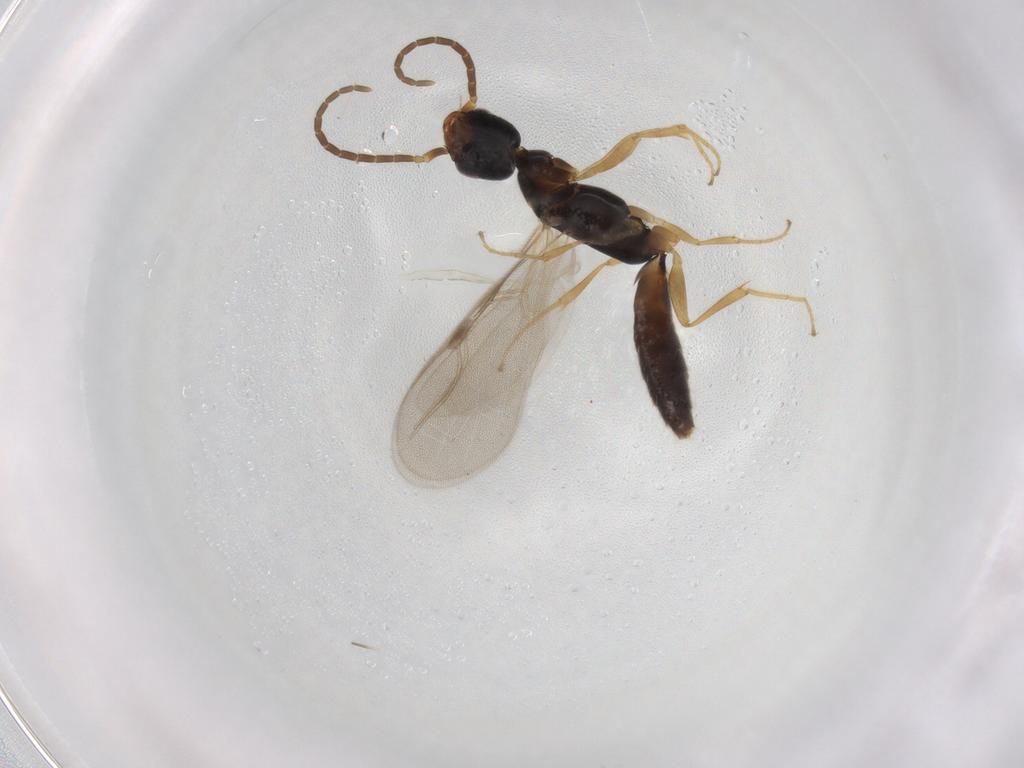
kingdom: Animalia
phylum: Arthropoda
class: Insecta
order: Hymenoptera
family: Bethylidae
